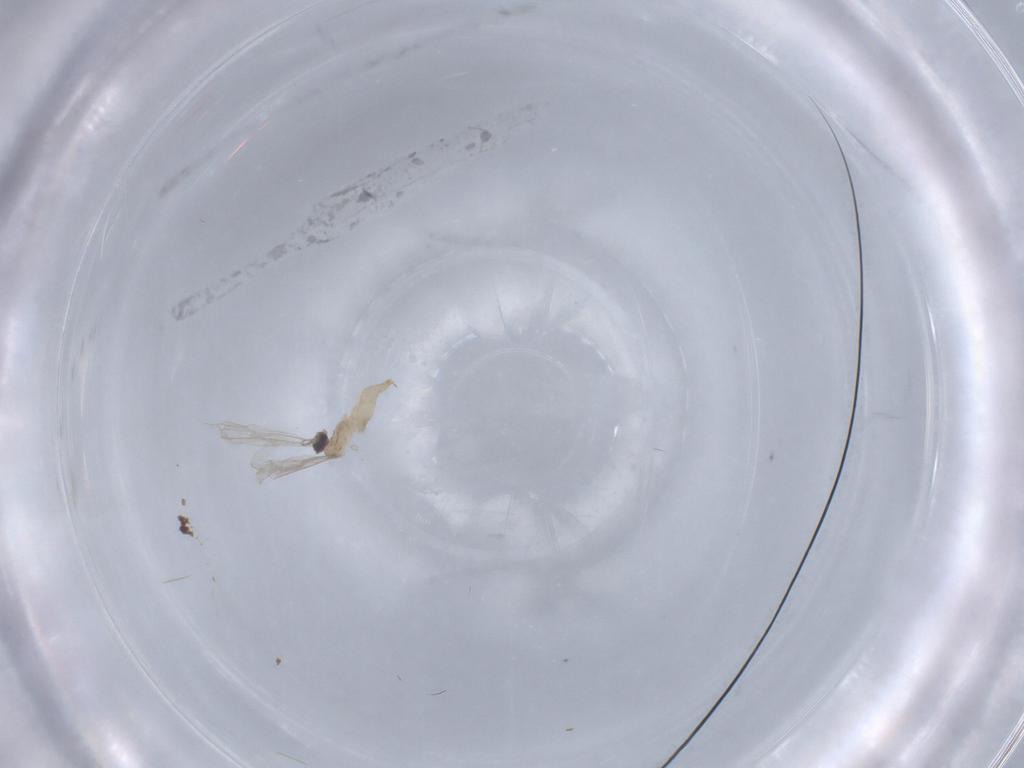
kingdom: Animalia
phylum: Arthropoda
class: Insecta
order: Diptera
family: Cecidomyiidae
